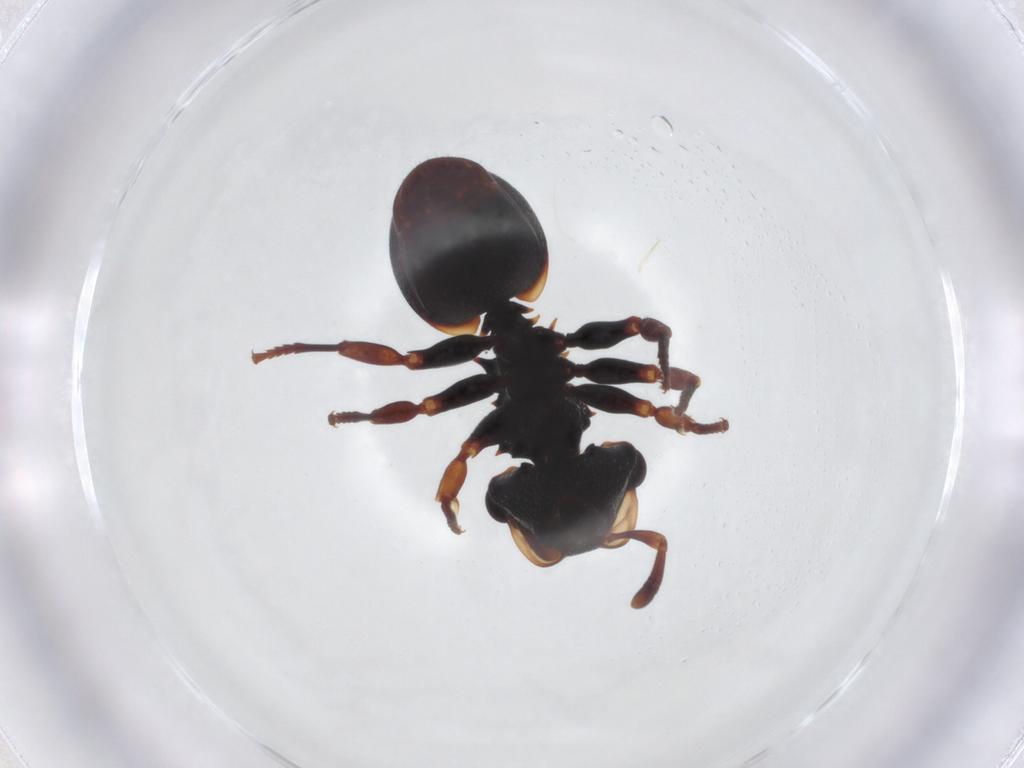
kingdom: Animalia
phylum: Arthropoda
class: Insecta
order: Hymenoptera
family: Formicidae
